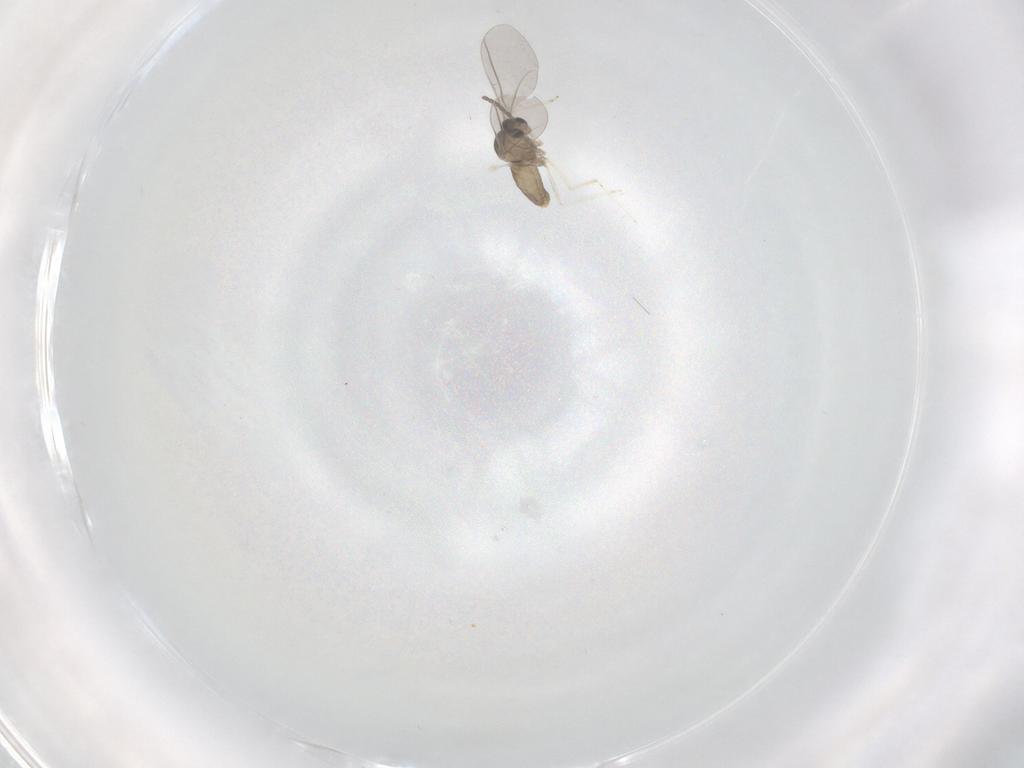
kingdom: Animalia
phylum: Arthropoda
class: Insecta
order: Diptera
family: Cecidomyiidae
